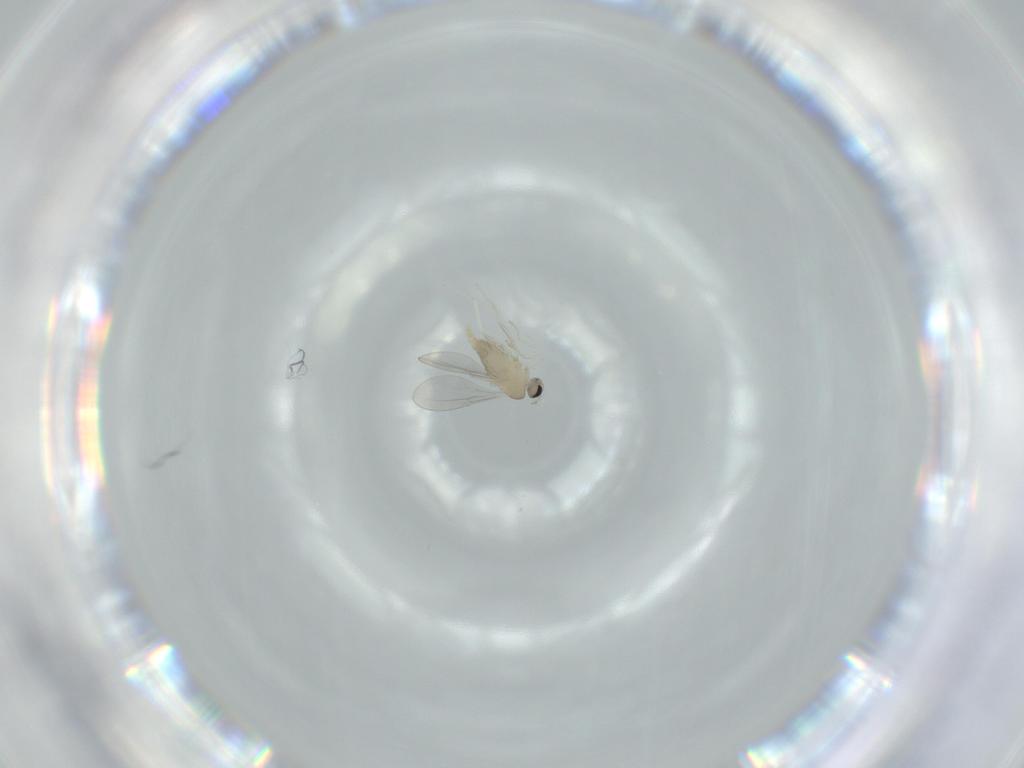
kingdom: Animalia
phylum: Arthropoda
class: Insecta
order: Diptera
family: Cecidomyiidae
